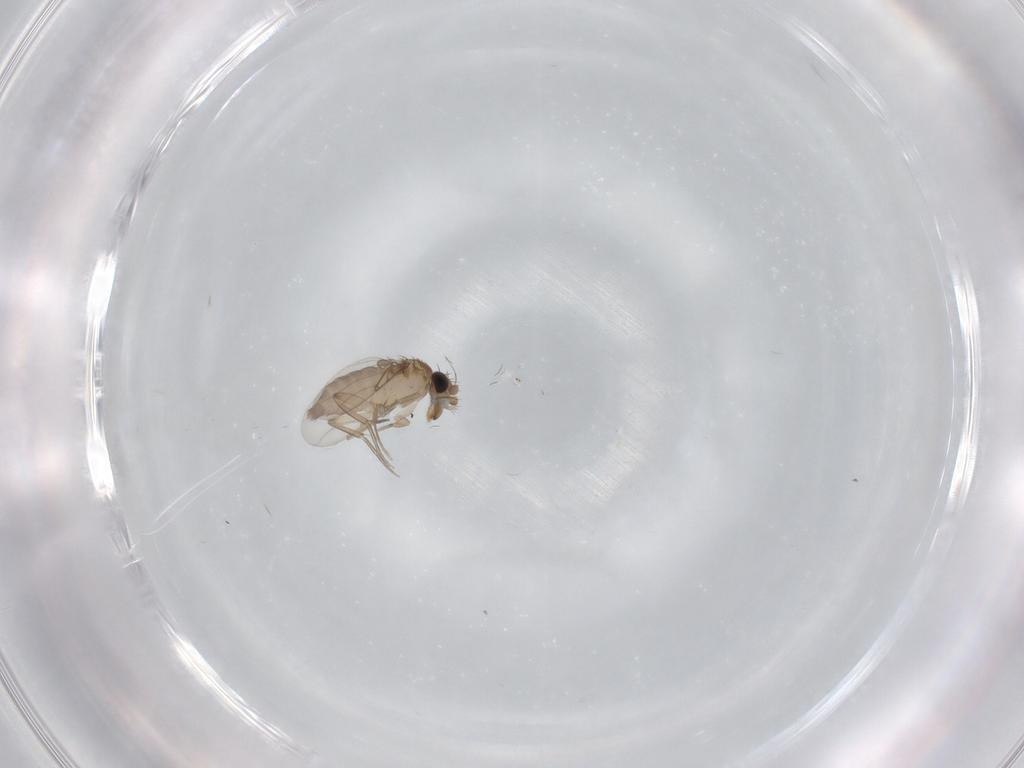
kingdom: Animalia
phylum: Arthropoda
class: Insecta
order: Diptera
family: Phoridae
